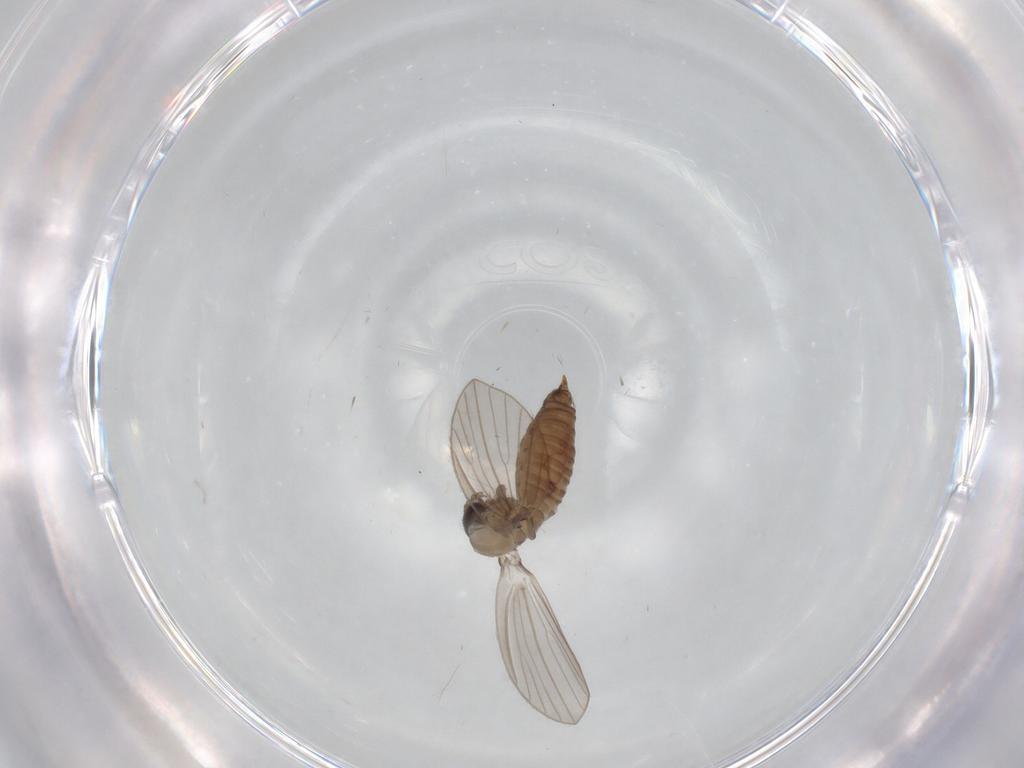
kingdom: Animalia
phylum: Arthropoda
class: Insecta
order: Diptera
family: Psychodidae
